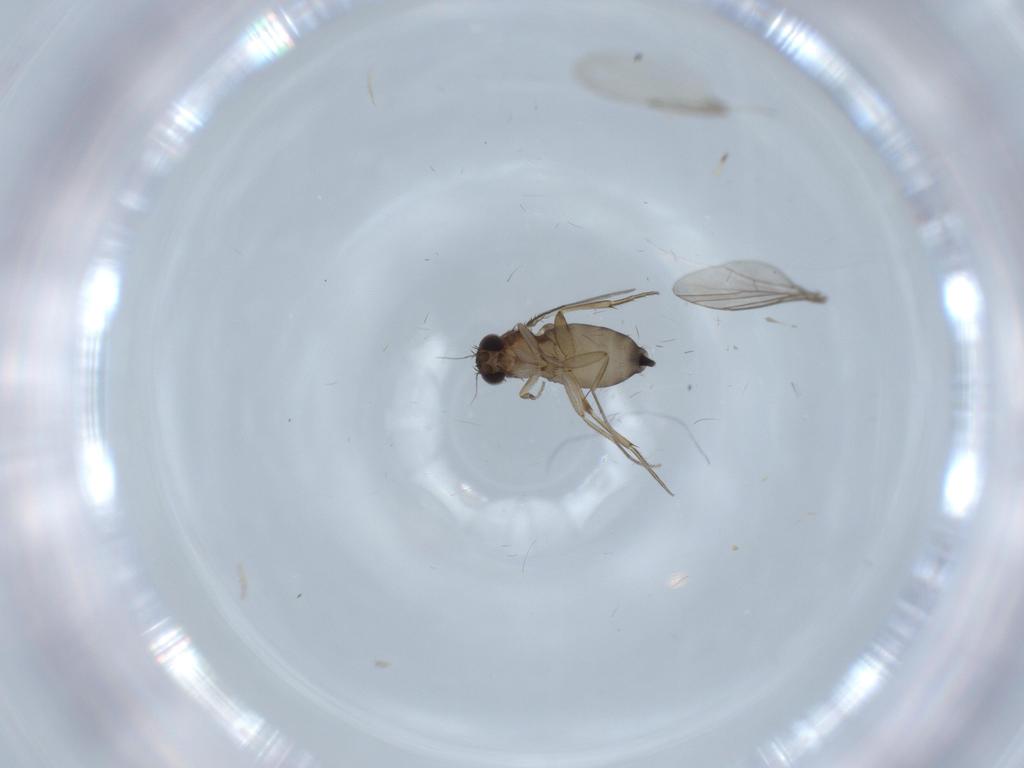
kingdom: Animalia
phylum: Arthropoda
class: Insecta
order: Diptera
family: Phoridae
